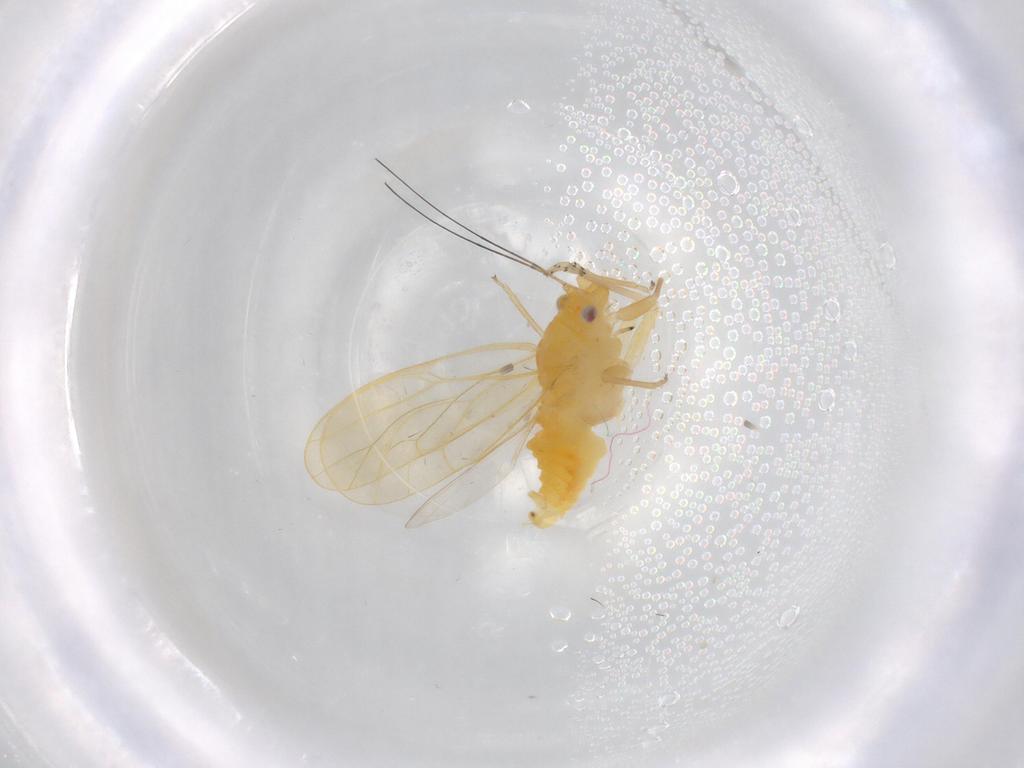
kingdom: Animalia
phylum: Arthropoda
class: Insecta
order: Hemiptera
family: Psyllidae
